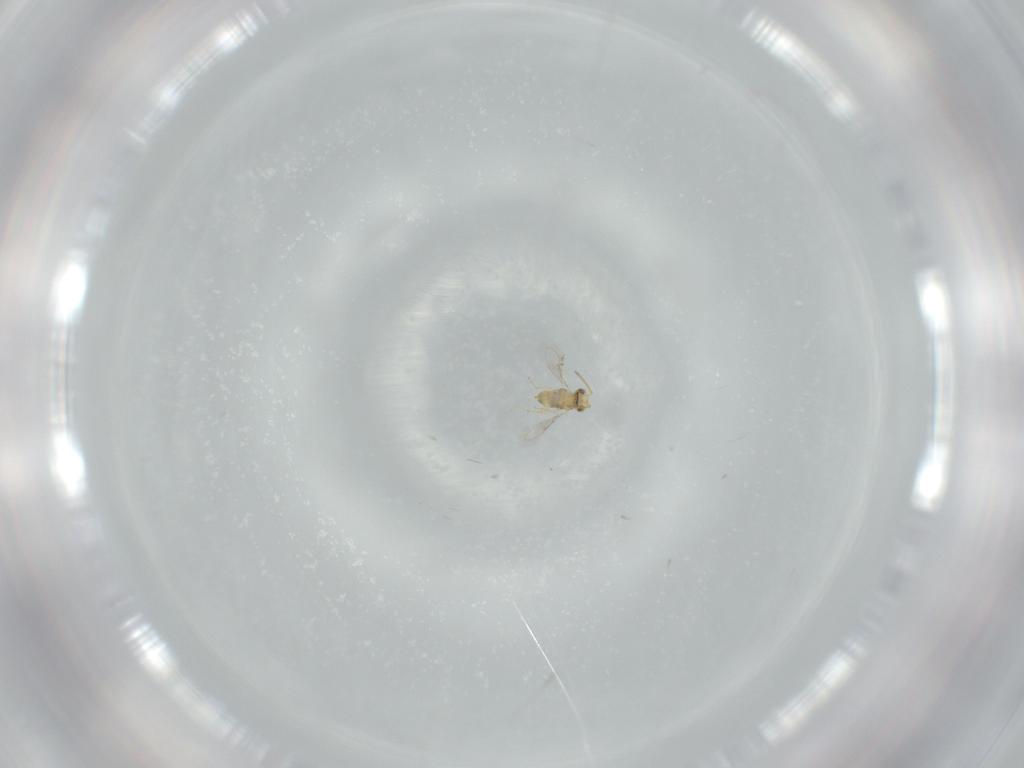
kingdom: Animalia
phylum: Arthropoda
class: Insecta
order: Hymenoptera
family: Aphelinidae
